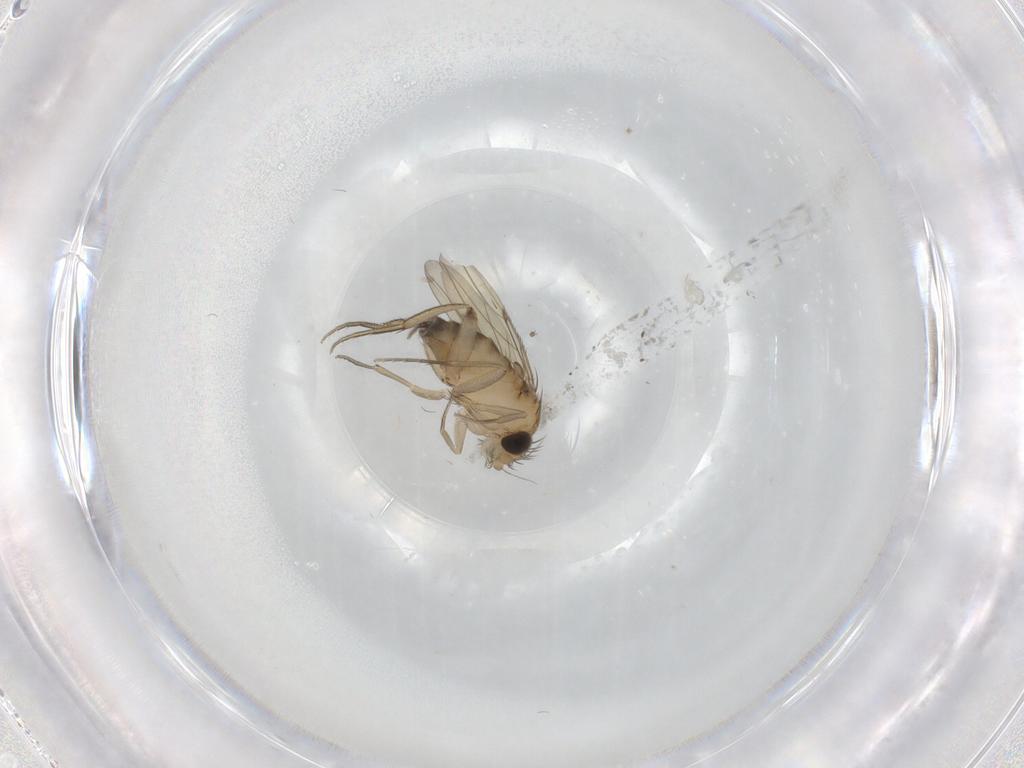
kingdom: Animalia
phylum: Arthropoda
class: Insecta
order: Diptera
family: Phoridae
